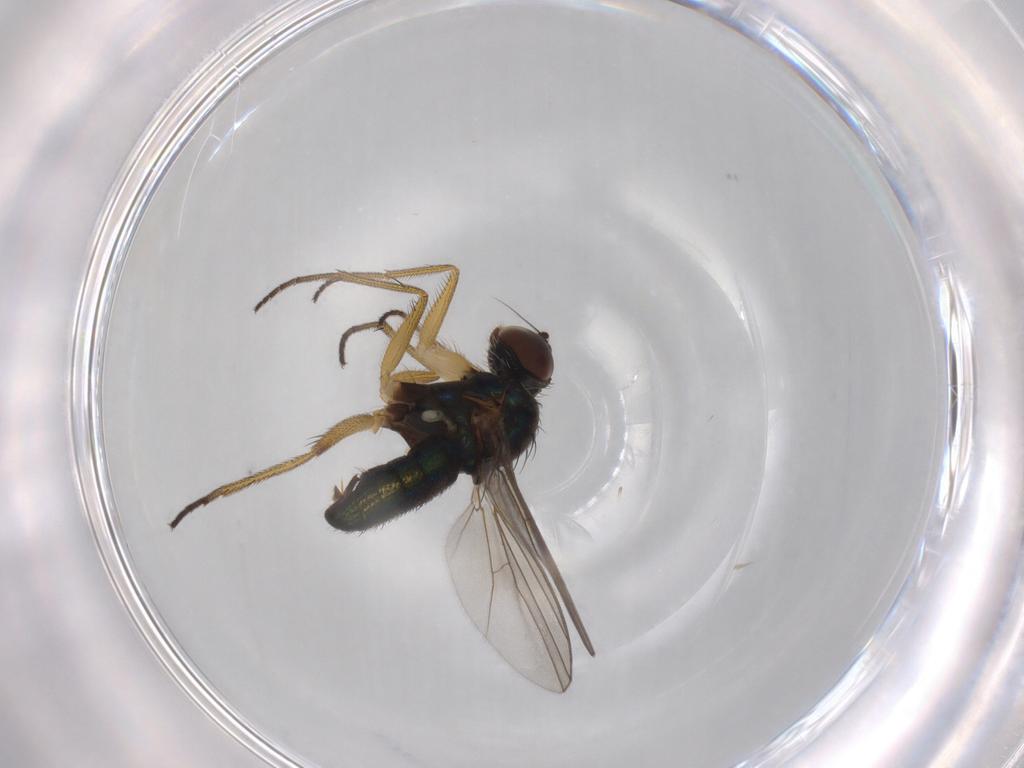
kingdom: Animalia
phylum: Arthropoda
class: Insecta
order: Diptera
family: Dolichopodidae
